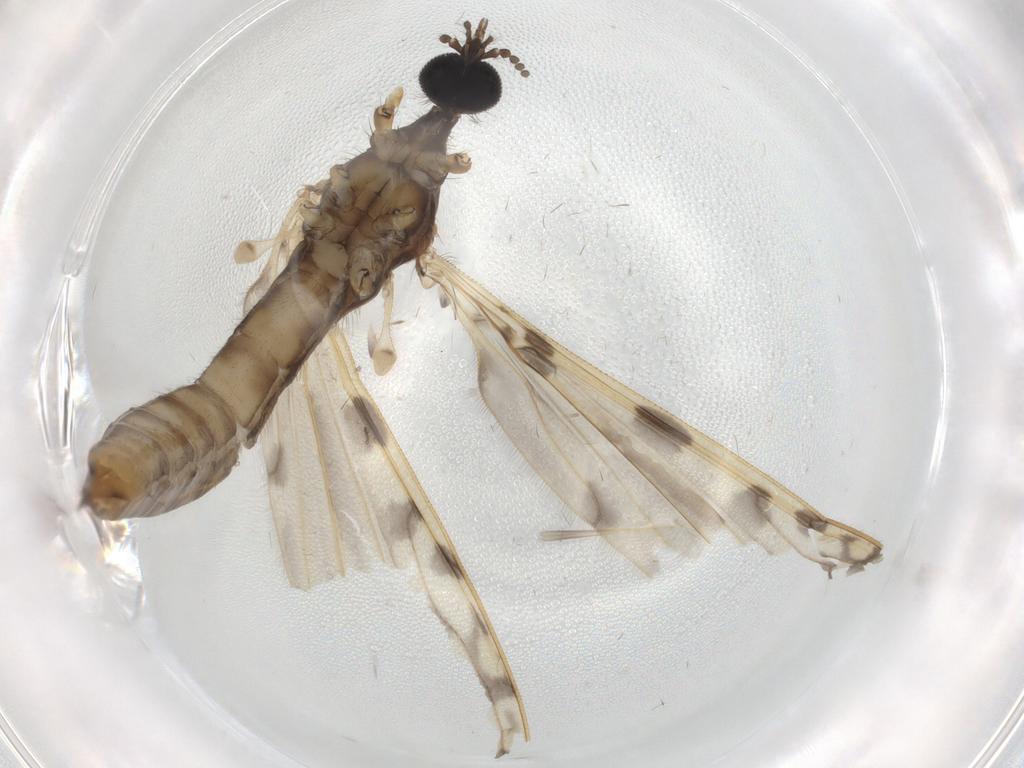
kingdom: Animalia
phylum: Arthropoda
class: Insecta
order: Diptera
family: Limoniidae
